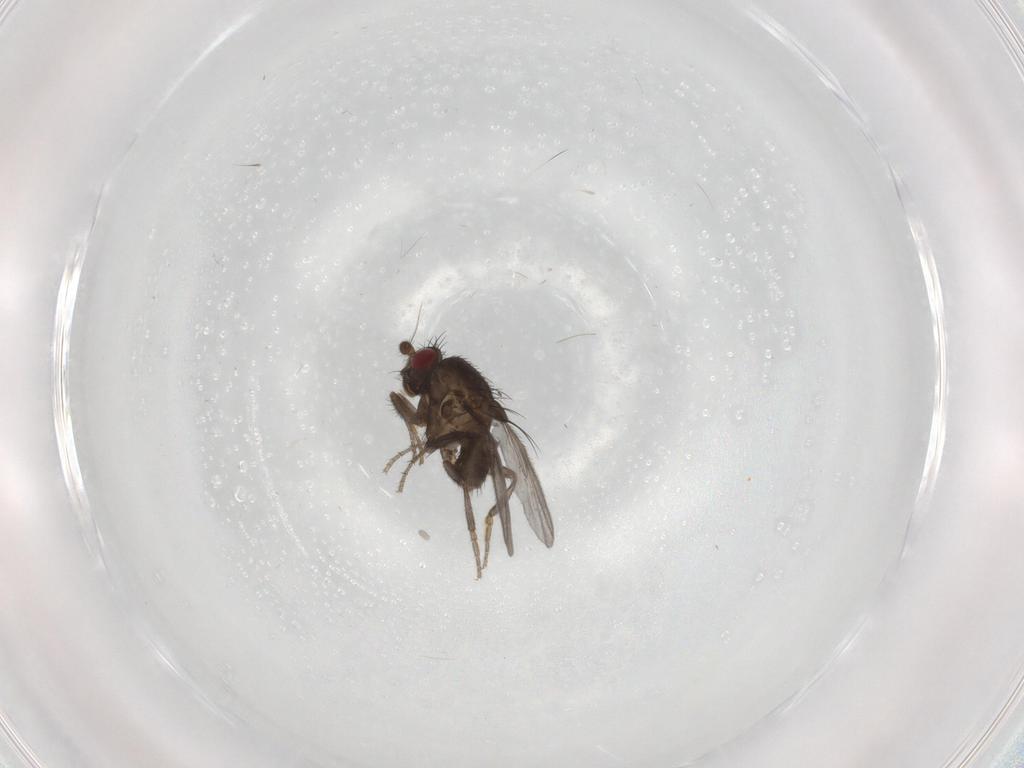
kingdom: Animalia
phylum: Arthropoda
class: Insecta
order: Diptera
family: Sphaeroceridae
